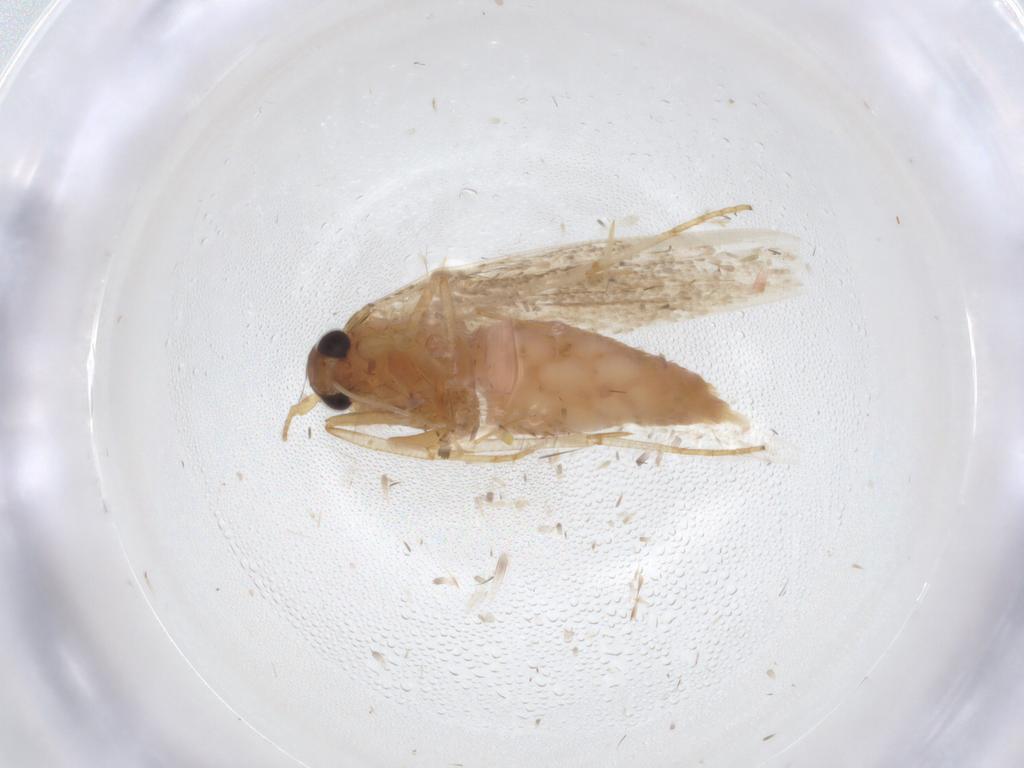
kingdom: Animalia
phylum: Arthropoda
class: Insecta
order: Lepidoptera
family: Blastobasidae
